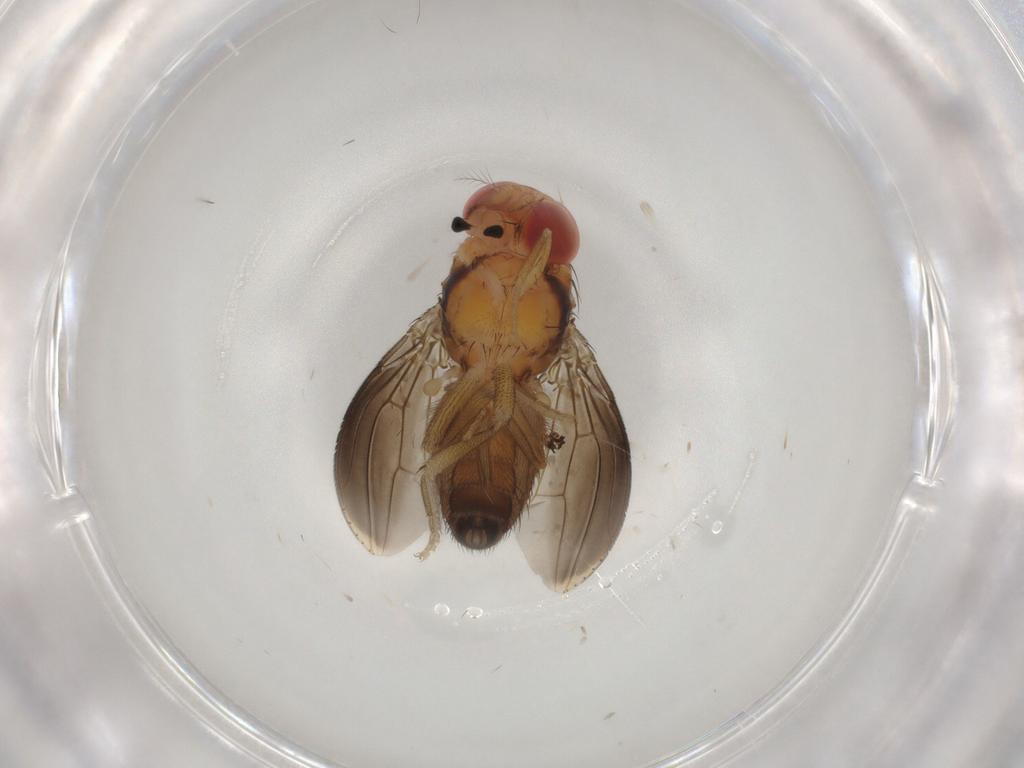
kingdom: Animalia
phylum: Arthropoda
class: Insecta
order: Diptera
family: Drosophilidae
